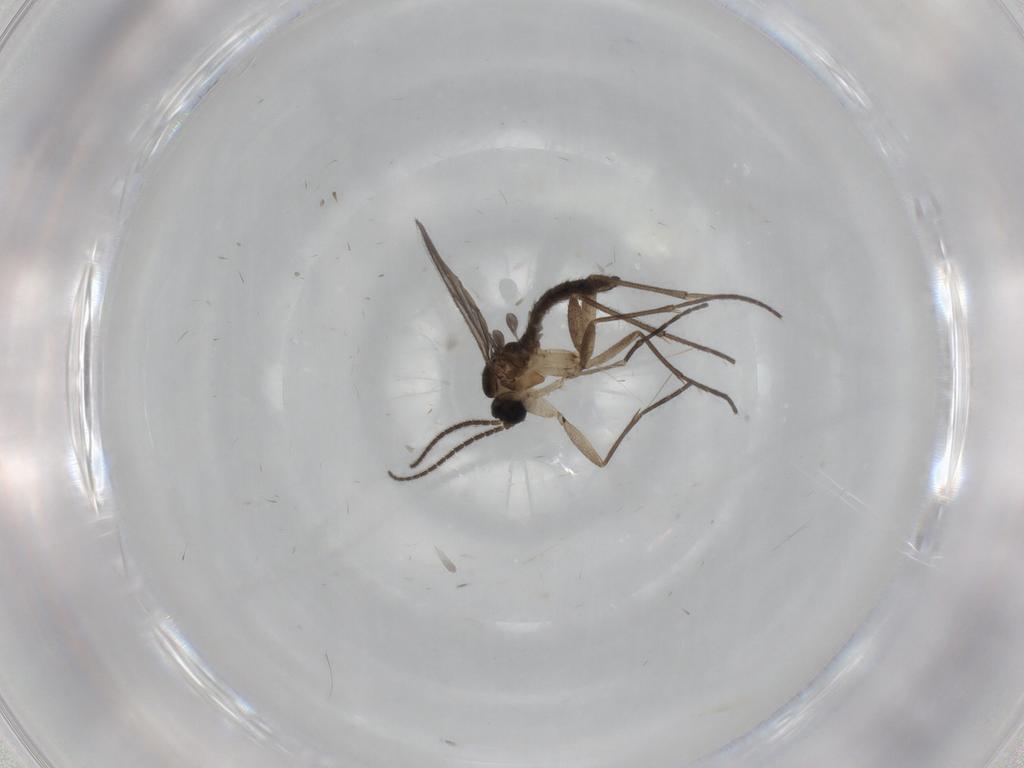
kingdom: Animalia
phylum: Arthropoda
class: Insecta
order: Diptera
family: Sciaridae
